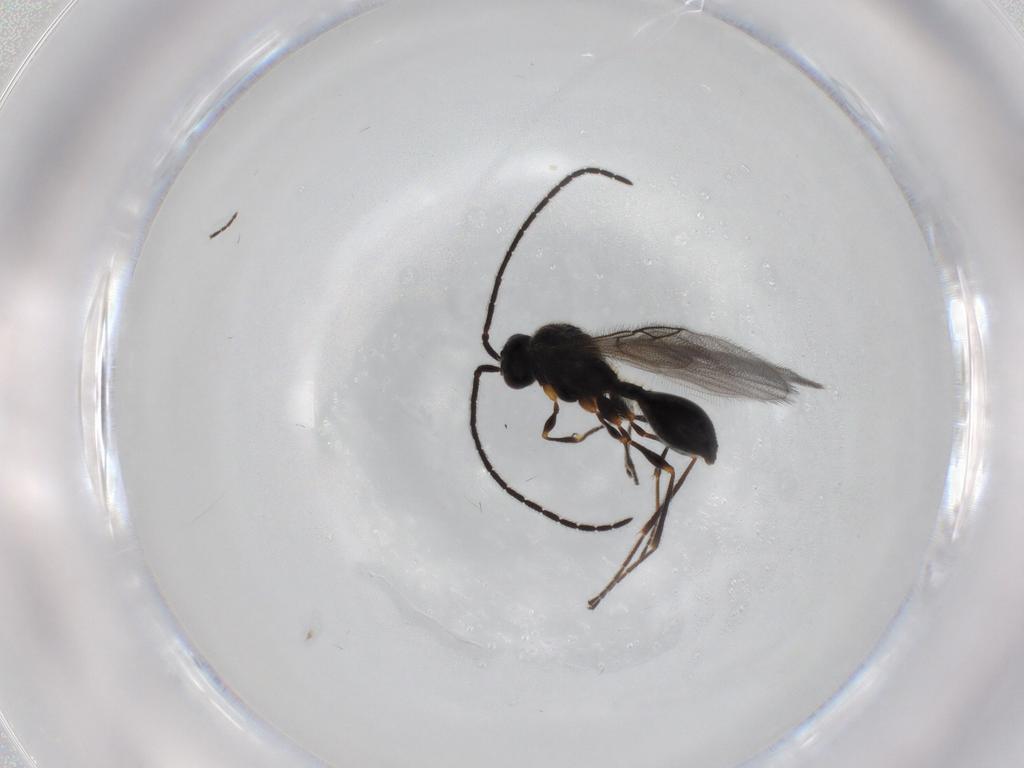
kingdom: Animalia
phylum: Arthropoda
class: Insecta
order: Hymenoptera
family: Diapriidae
